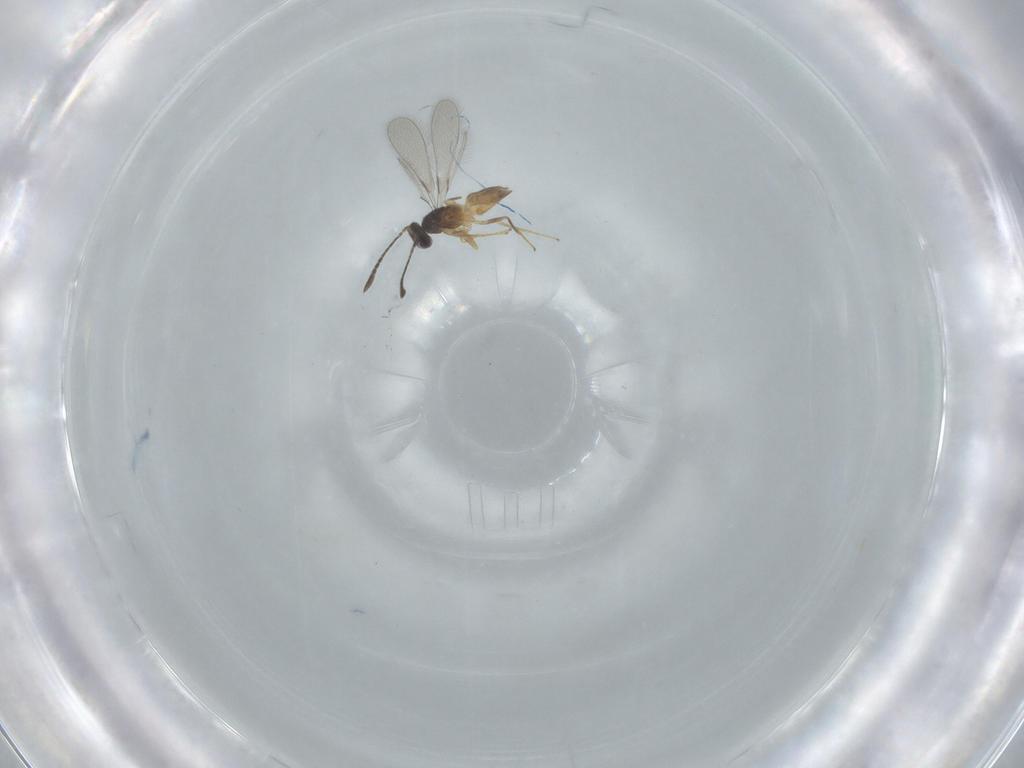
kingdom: Animalia
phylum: Arthropoda
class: Insecta
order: Hymenoptera
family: Mymaridae
